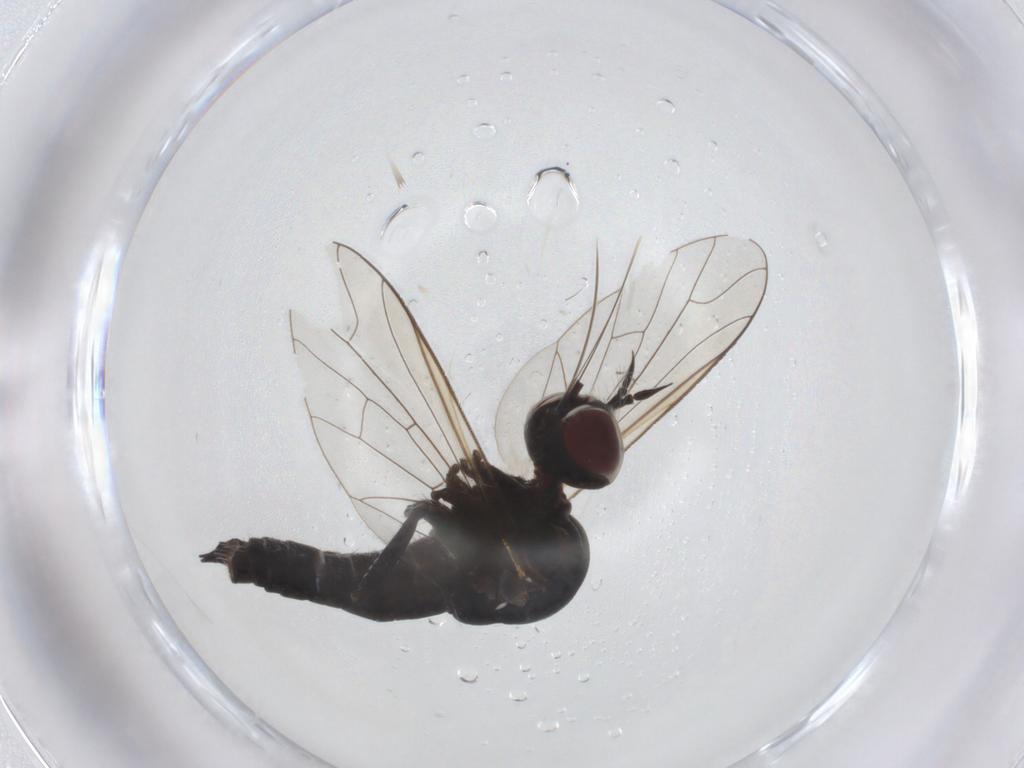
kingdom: Animalia
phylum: Arthropoda
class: Insecta
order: Diptera
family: Bombyliidae
